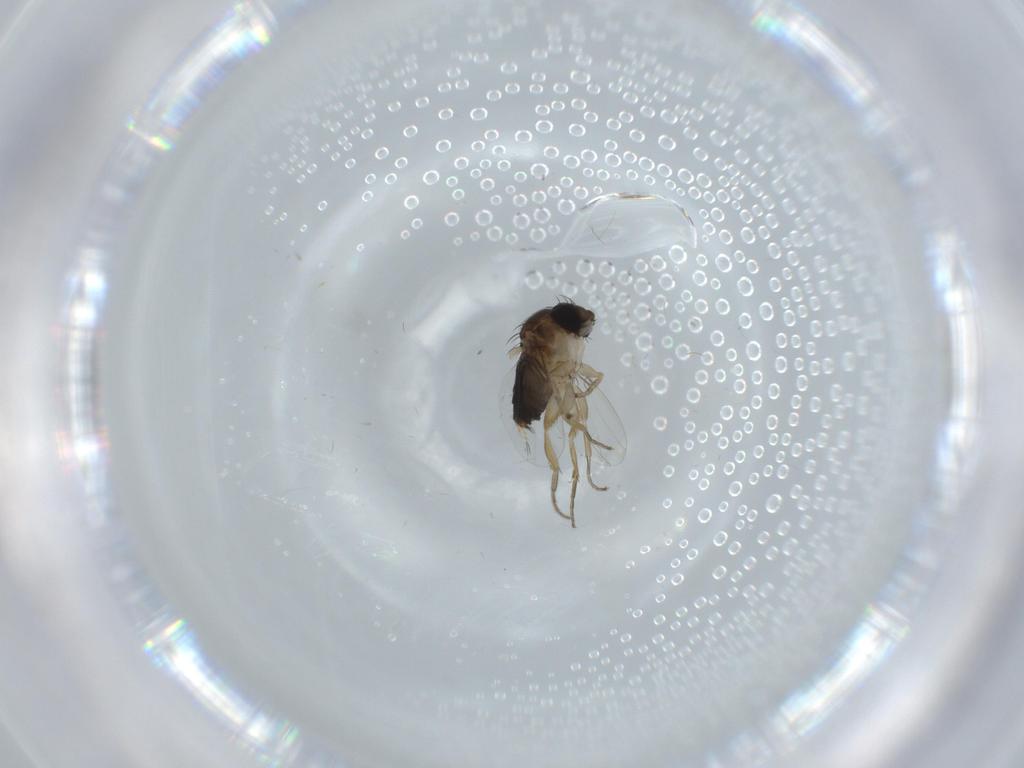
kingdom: Animalia
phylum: Arthropoda
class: Insecta
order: Diptera
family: Phoridae
